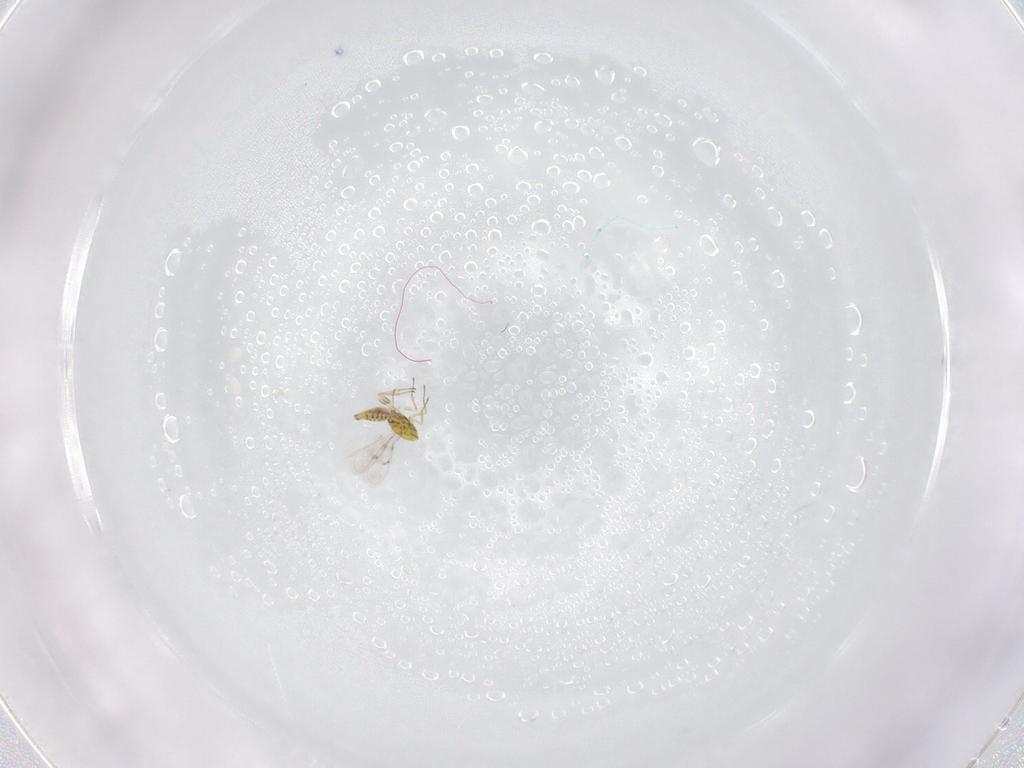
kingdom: Animalia
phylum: Arthropoda
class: Insecta
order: Hymenoptera
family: Eulophidae
